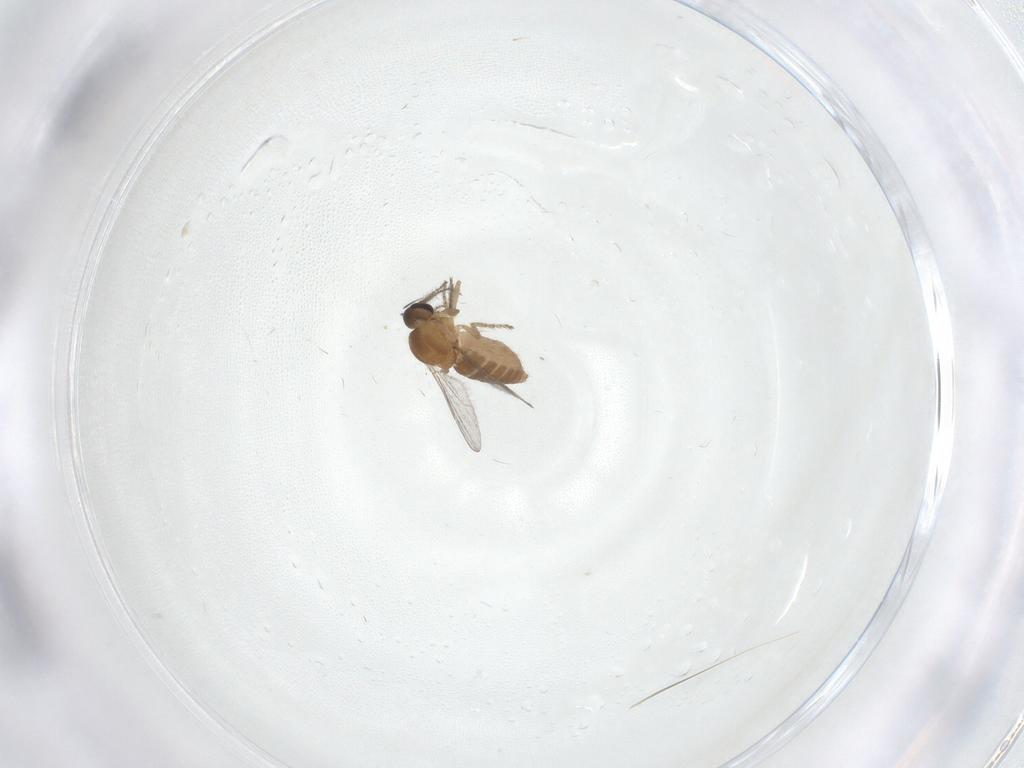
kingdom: Animalia
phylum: Arthropoda
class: Insecta
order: Diptera
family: Ceratopogonidae
